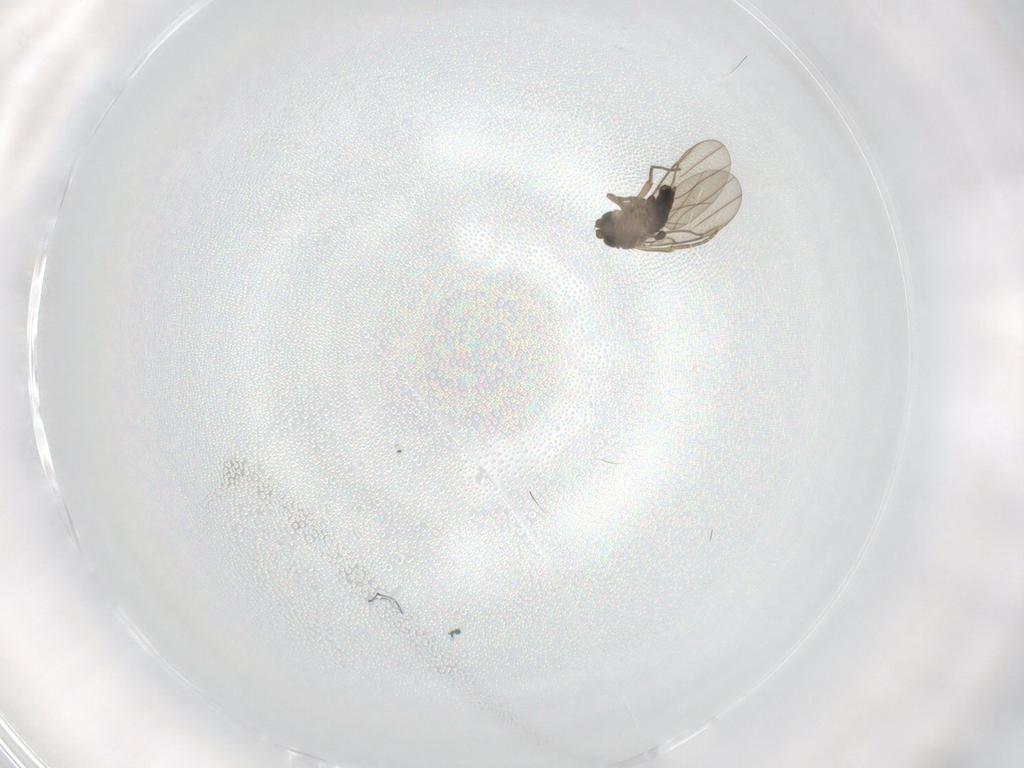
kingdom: Animalia
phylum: Arthropoda
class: Insecta
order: Diptera
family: Phoridae
